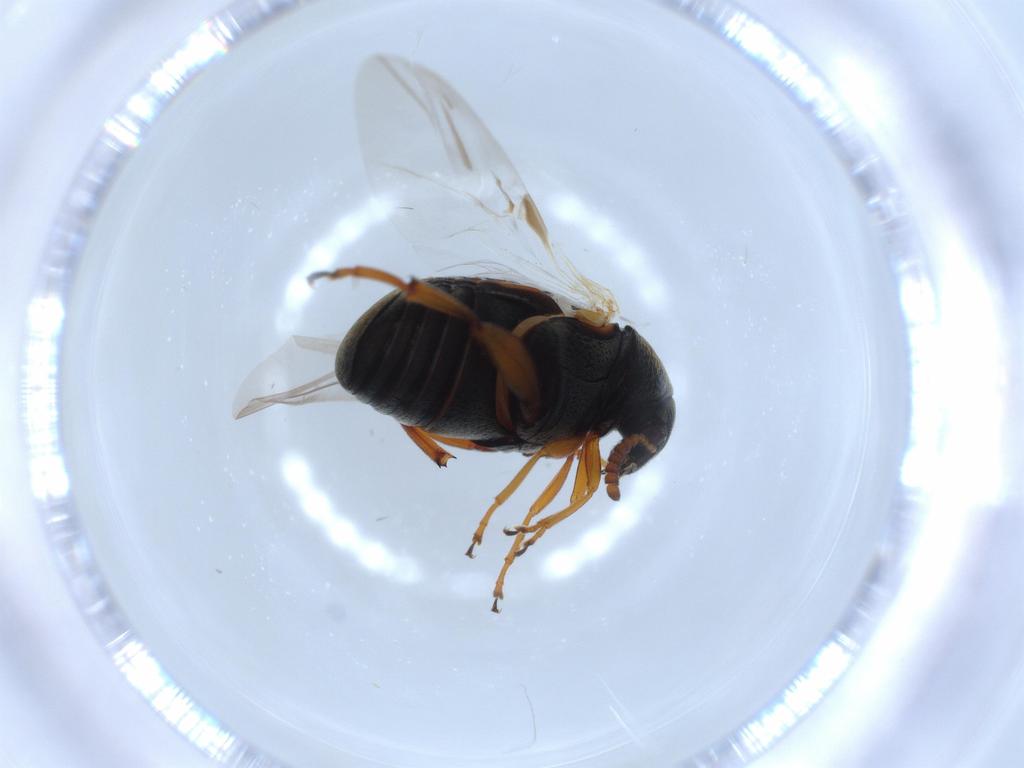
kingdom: Animalia
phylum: Arthropoda
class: Insecta
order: Coleoptera
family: Chrysomelidae
